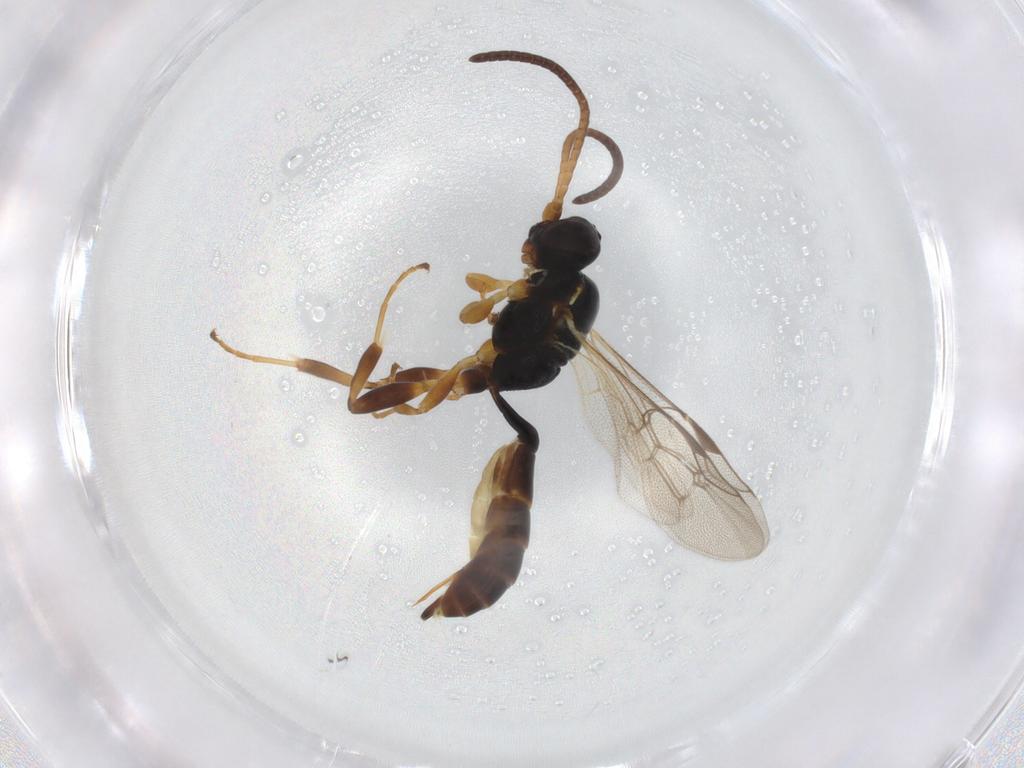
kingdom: Animalia
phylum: Arthropoda
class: Insecta
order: Hymenoptera
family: Ichneumonidae
